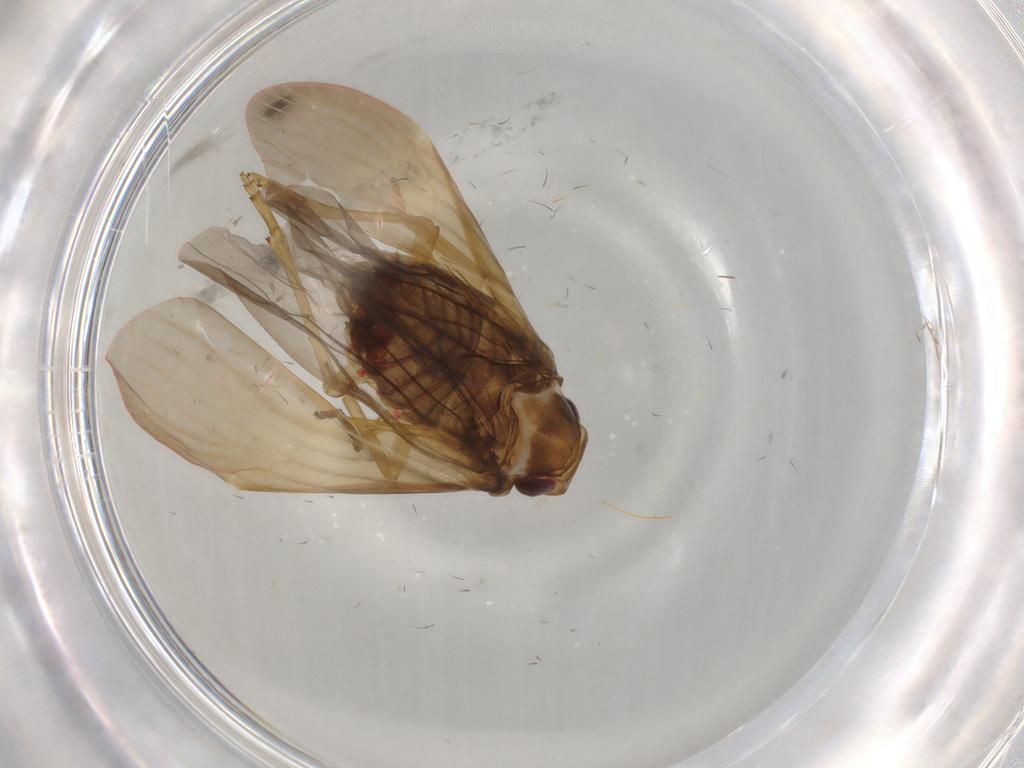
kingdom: Animalia
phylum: Arthropoda
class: Insecta
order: Hemiptera
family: Achilidae
